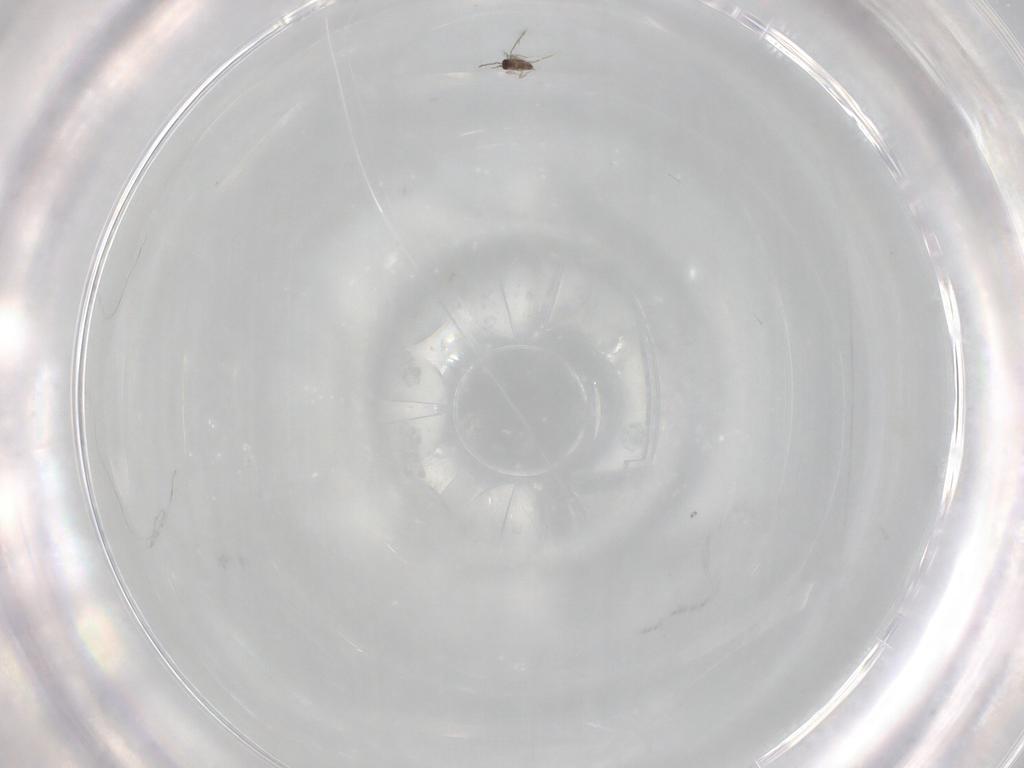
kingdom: Animalia
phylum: Arthropoda
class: Insecta
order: Hymenoptera
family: Braconidae
